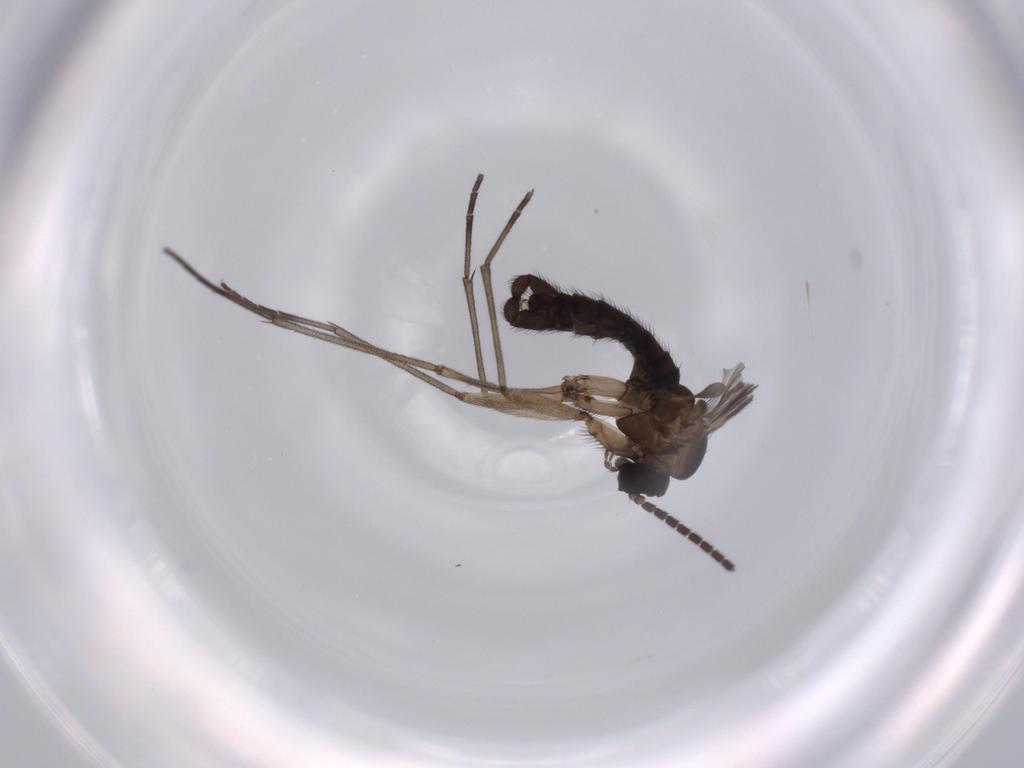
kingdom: Animalia
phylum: Arthropoda
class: Insecta
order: Diptera
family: Sciaridae
